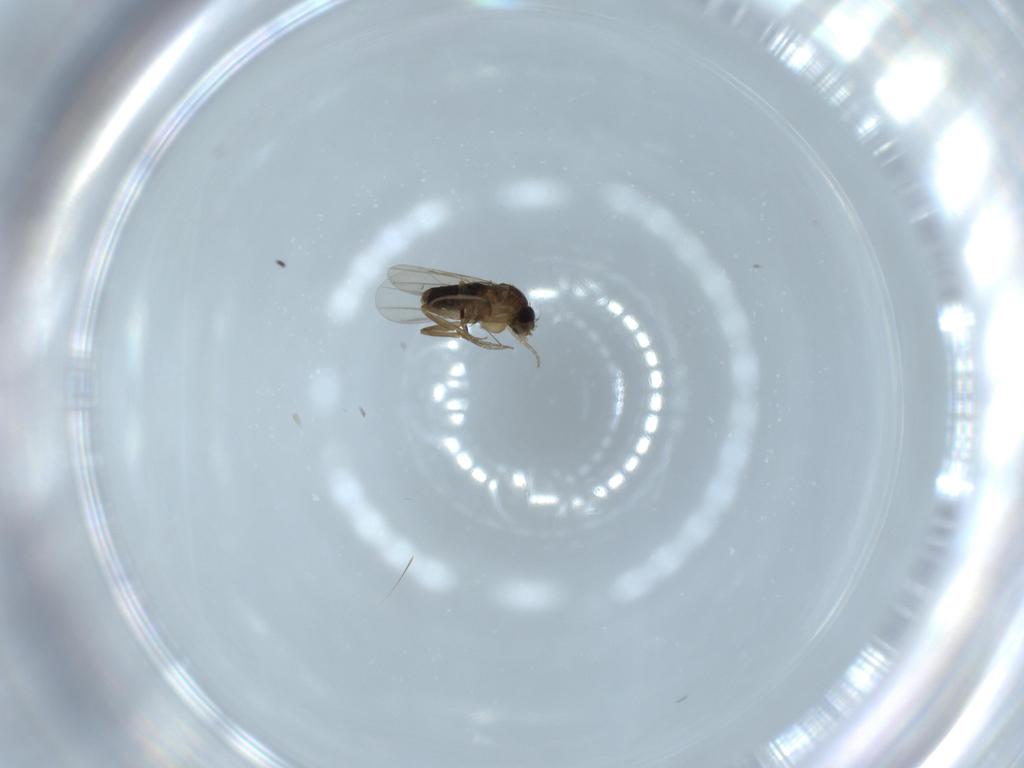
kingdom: Animalia
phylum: Arthropoda
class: Insecta
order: Diptera
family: Phoridae
